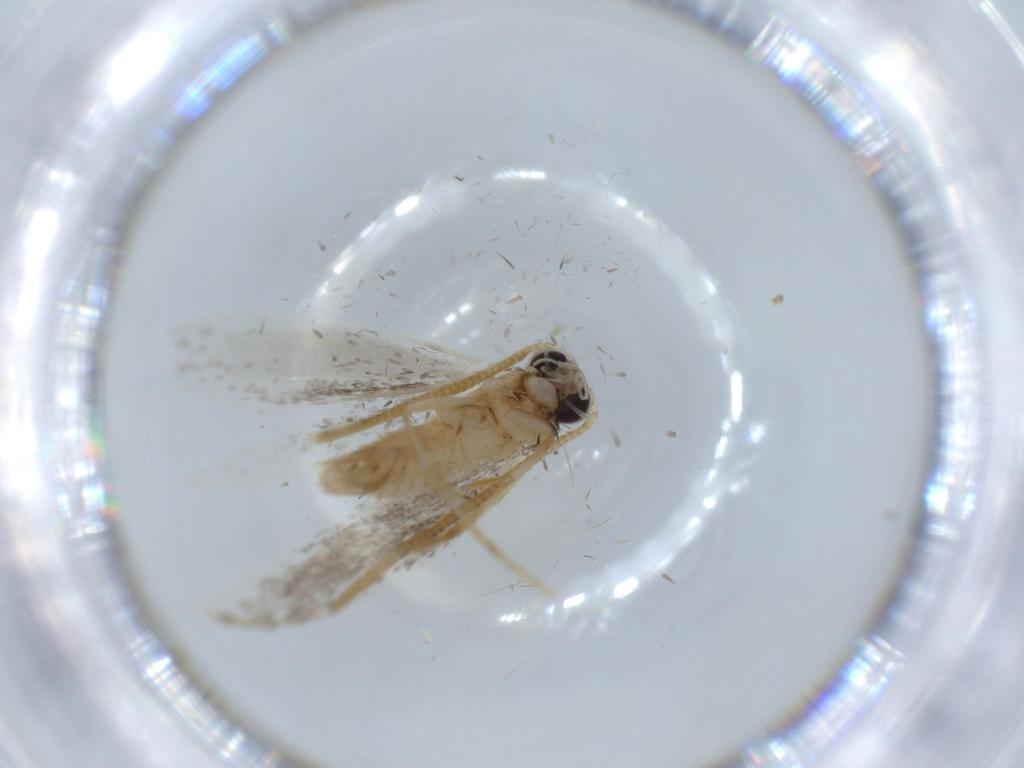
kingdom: Animalia
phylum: Arthropoda
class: Insecta
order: Lepidoptera
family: Tineidae
